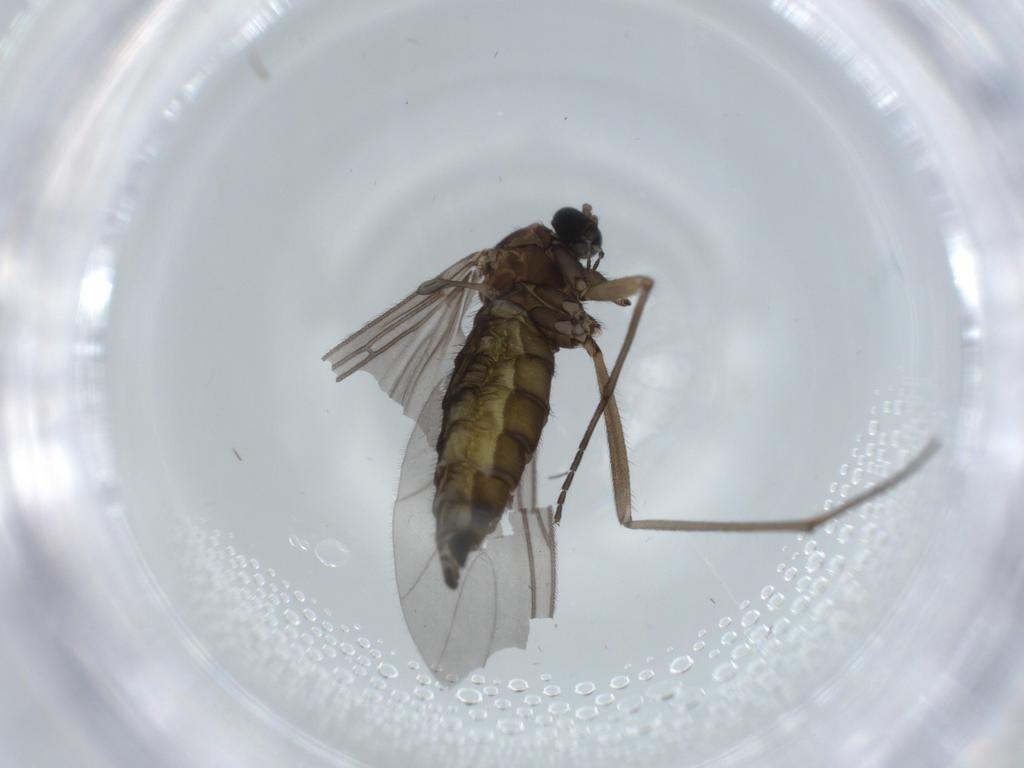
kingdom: Animalia
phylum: Arthropoda
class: Insecta
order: Diptera
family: Sciaridae
